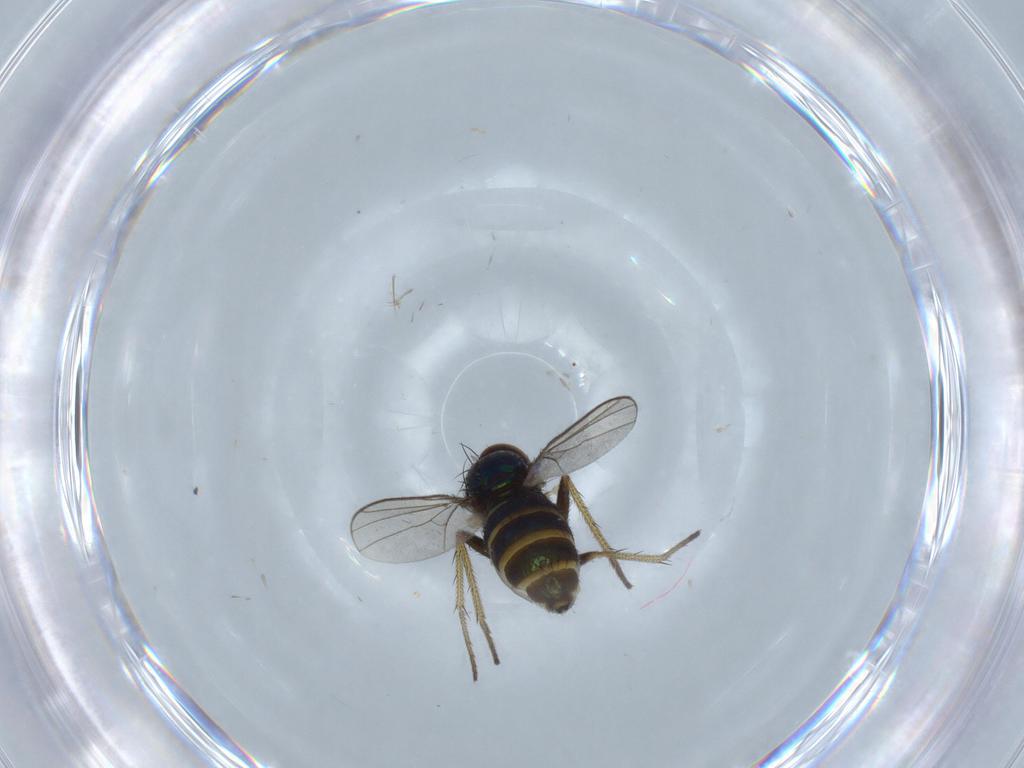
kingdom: Animalia
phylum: Arthropoda
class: Insecta
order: Diptera
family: Dolichopodidae
